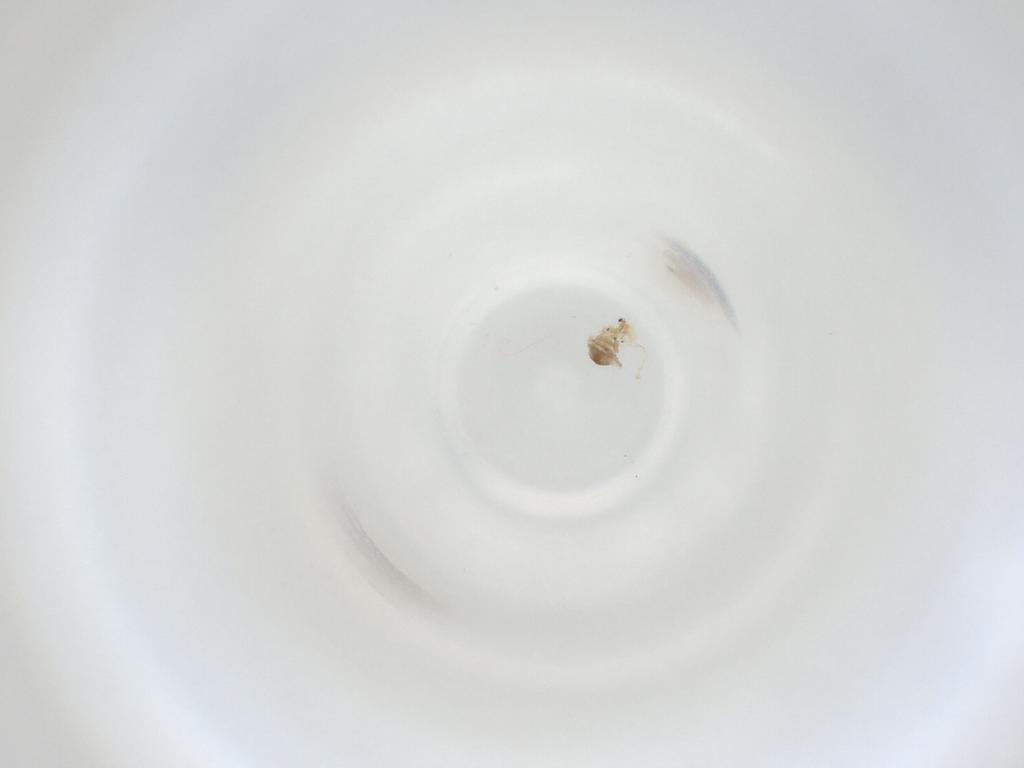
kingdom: Animalia
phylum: Arthropoda
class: Insecta
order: Diptera
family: Cecidomyiidae
